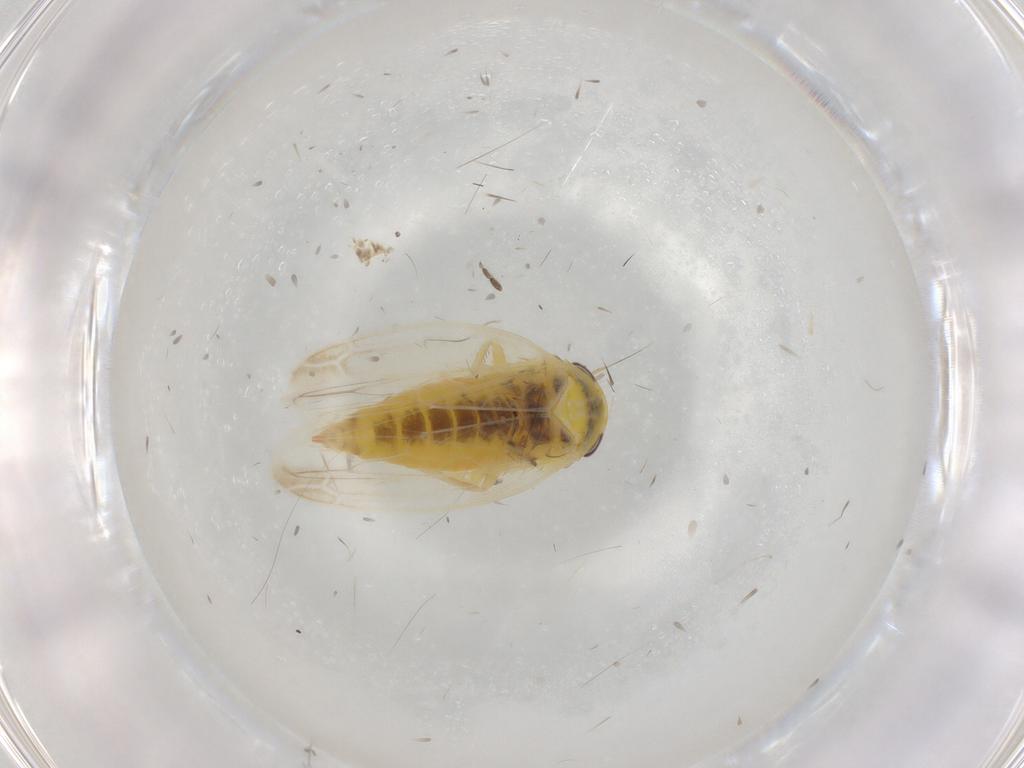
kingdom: Animalia
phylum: Arthropoda
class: Insecta
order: Hemiptera
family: Cicadellidae
